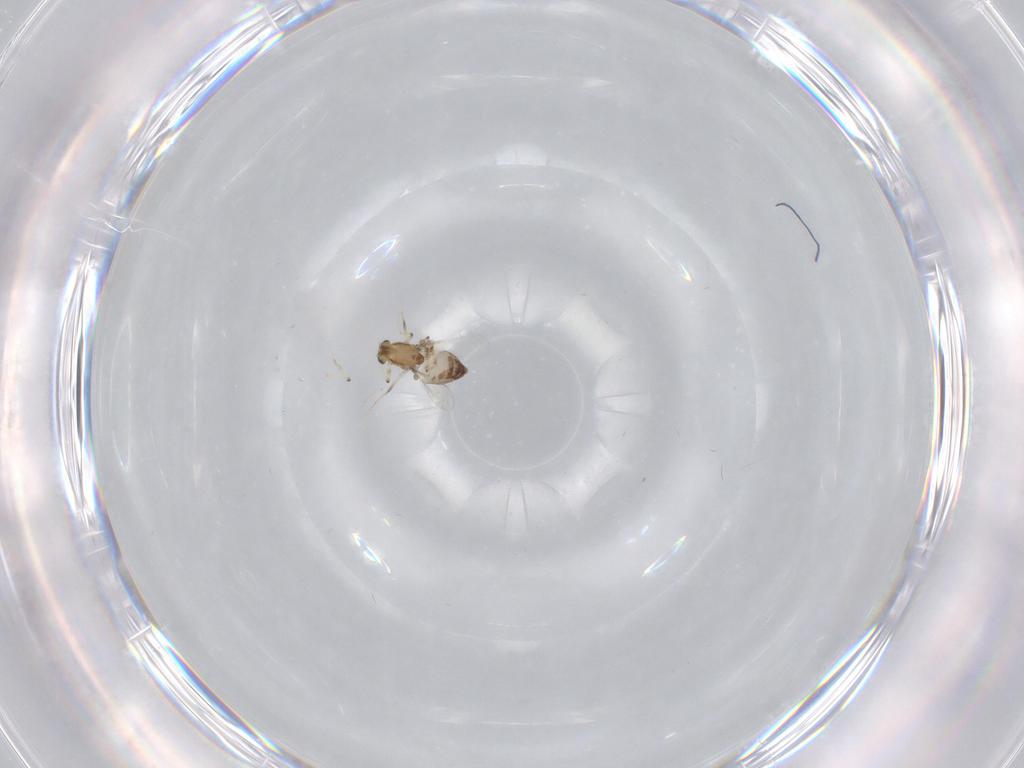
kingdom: Animalia
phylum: Arthropoda
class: Insecta
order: Diptera
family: Chironomidae
